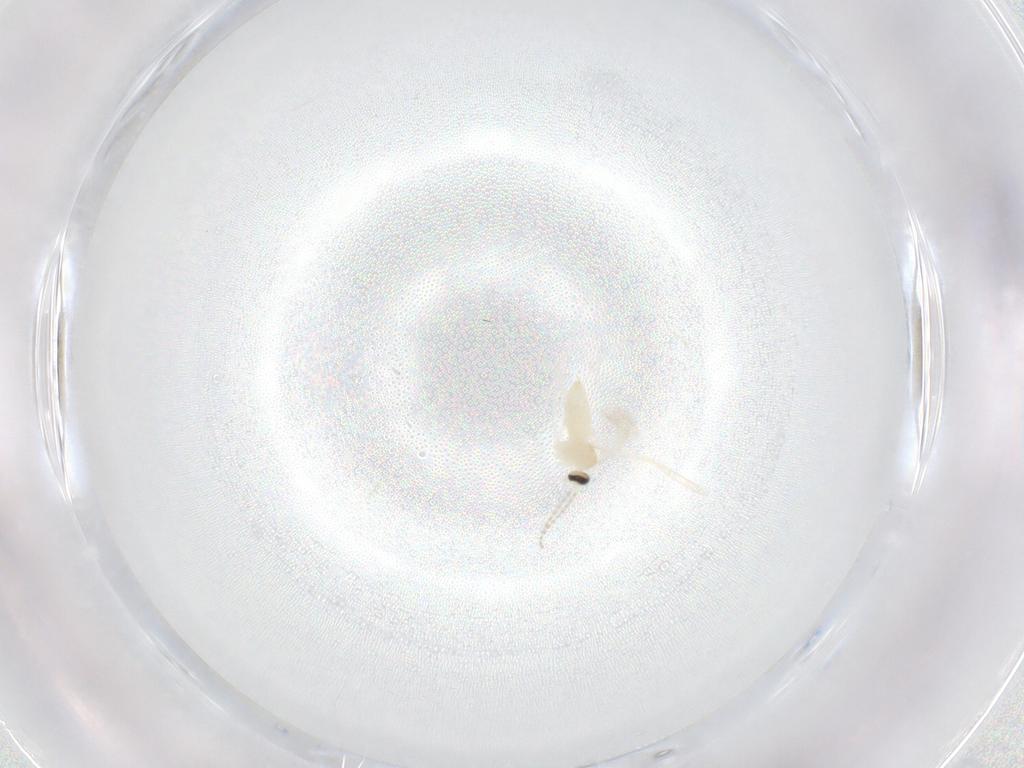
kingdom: Animalia
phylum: Arthropoda
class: Insecta
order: Diptera
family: Cecidomyiidae
